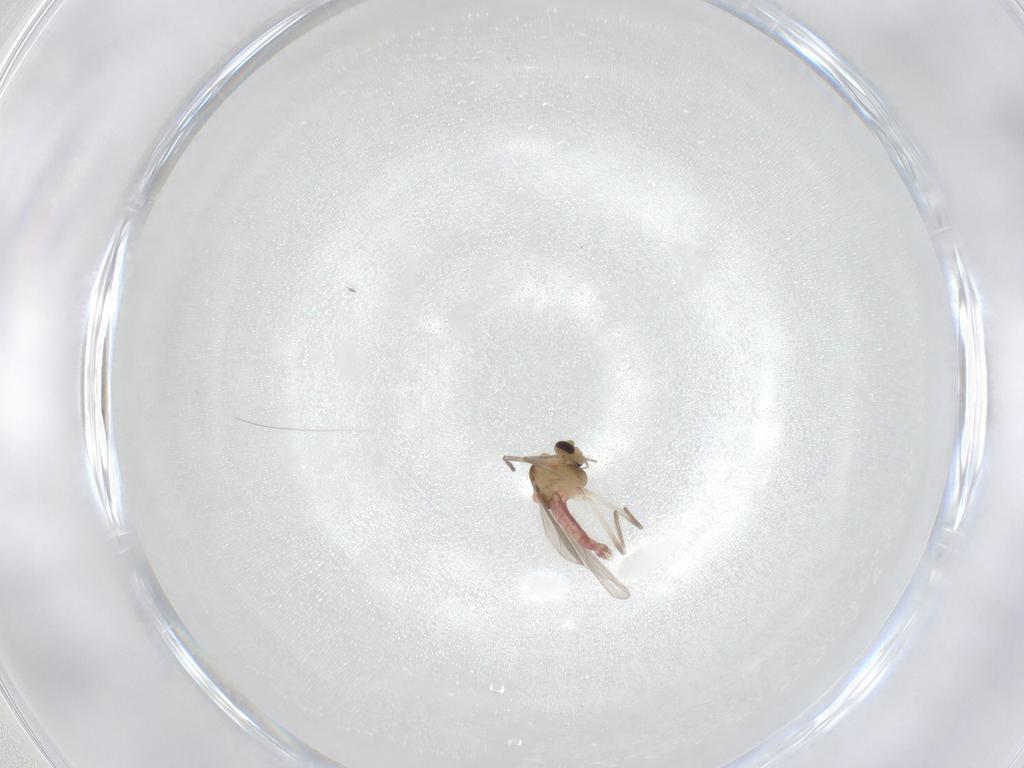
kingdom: Animalia
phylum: Arthropoda
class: Insecta
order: Diptera
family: Chironomidae
